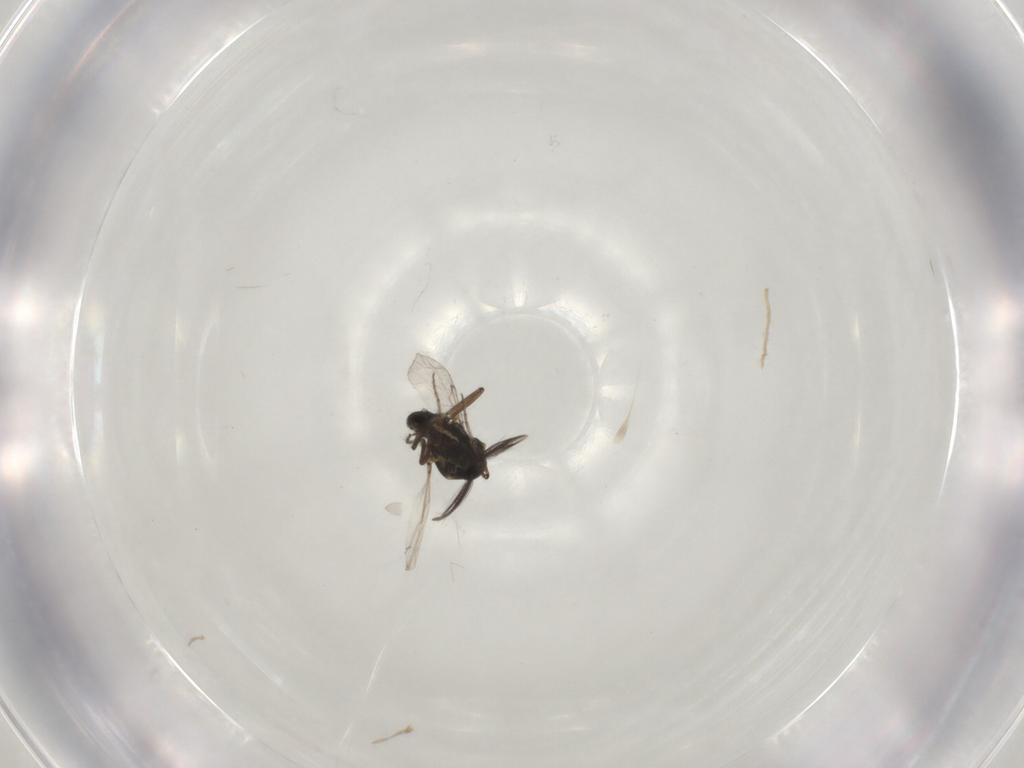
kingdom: Animalia
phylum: Arthropoda
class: Insecta
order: Diptera
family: Ceratopogonidae
